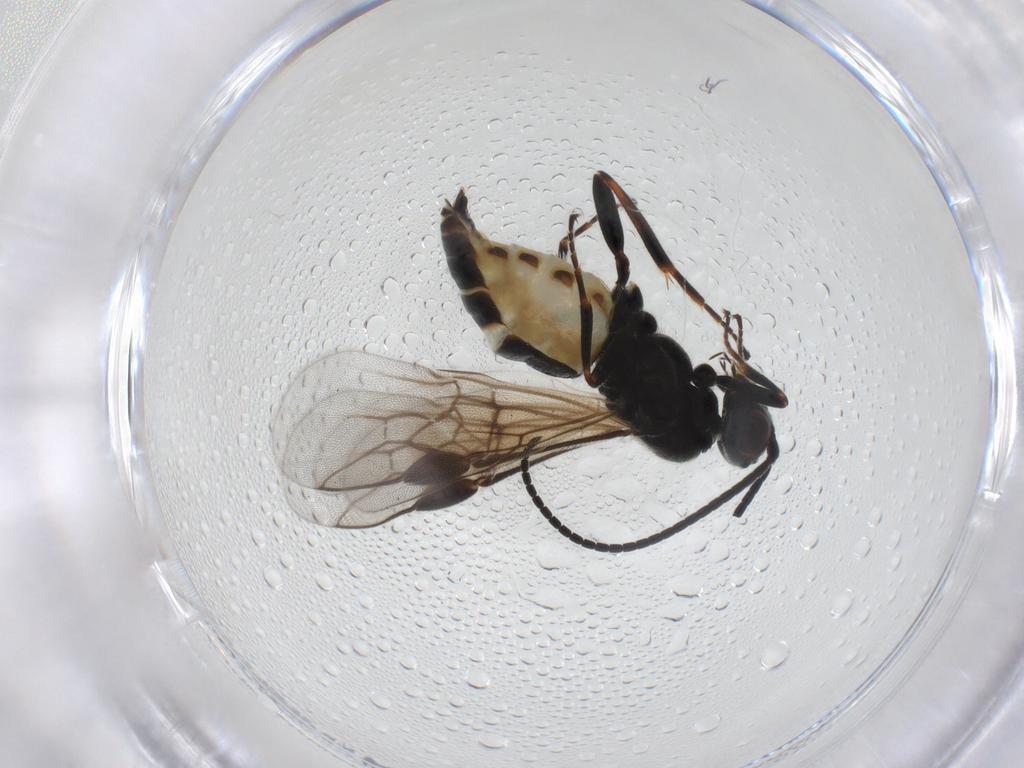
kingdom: Animalia
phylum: Arthropoda
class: Insecta
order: Hymenoptera
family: Braconidae
